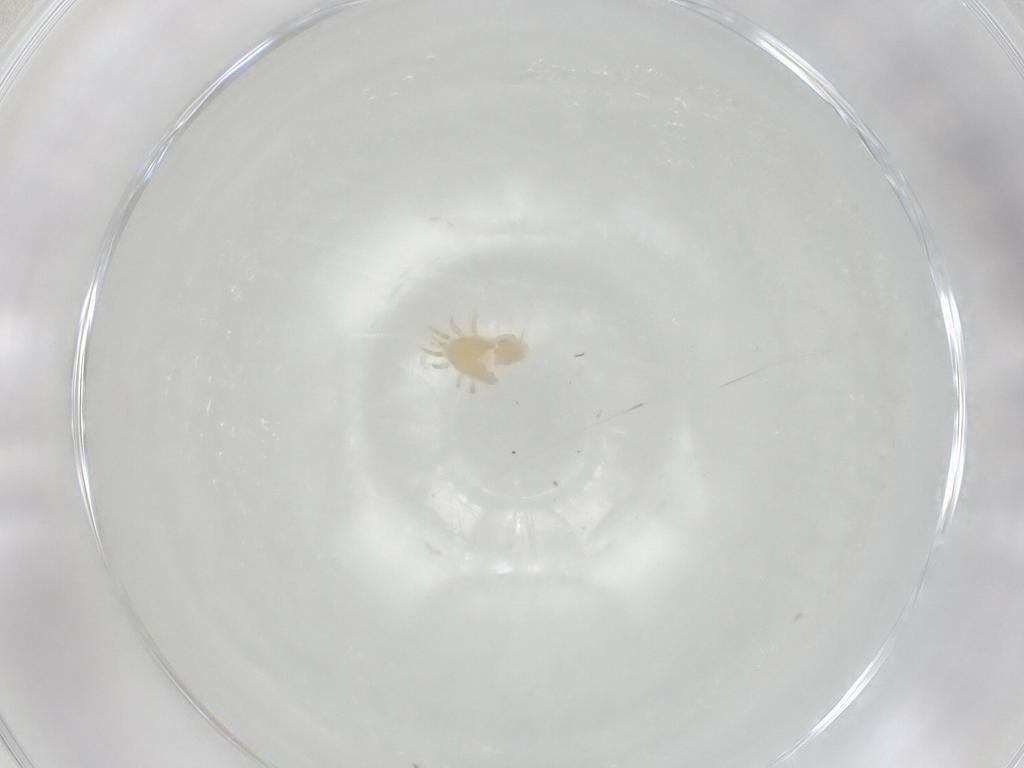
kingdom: Animalia
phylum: Arthropoda
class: Arachnida
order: Mesostigmata
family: Melicharidae
